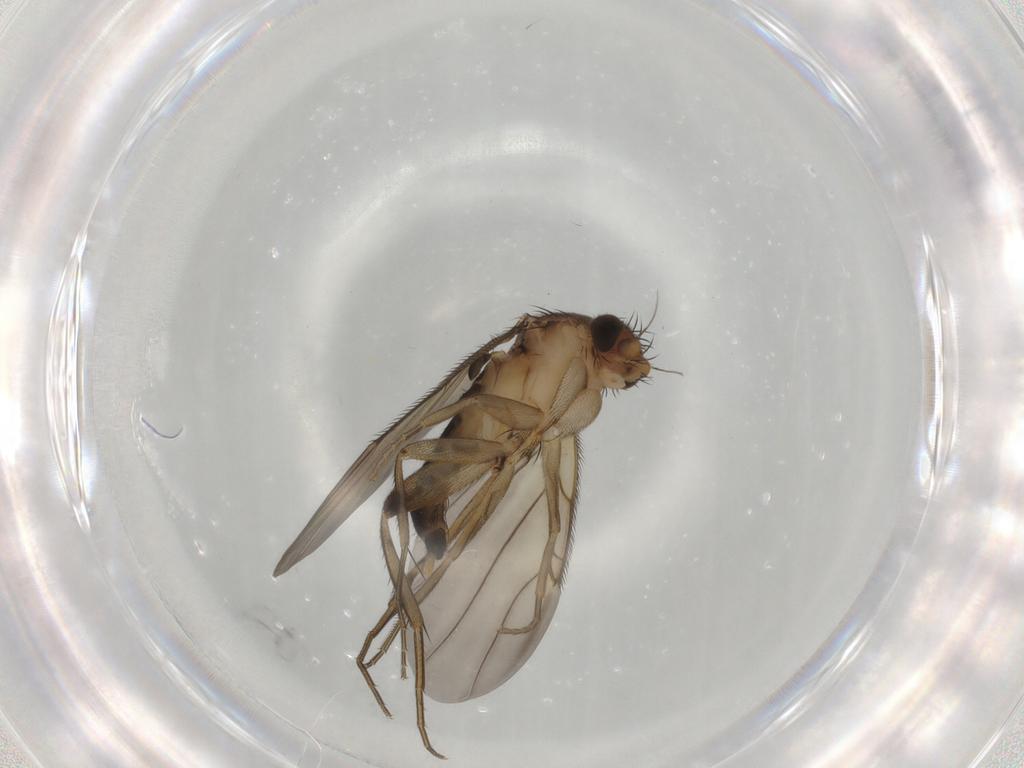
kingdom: Animalia
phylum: Arthropoda
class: Insecta
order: Diptera
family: Phoridae
